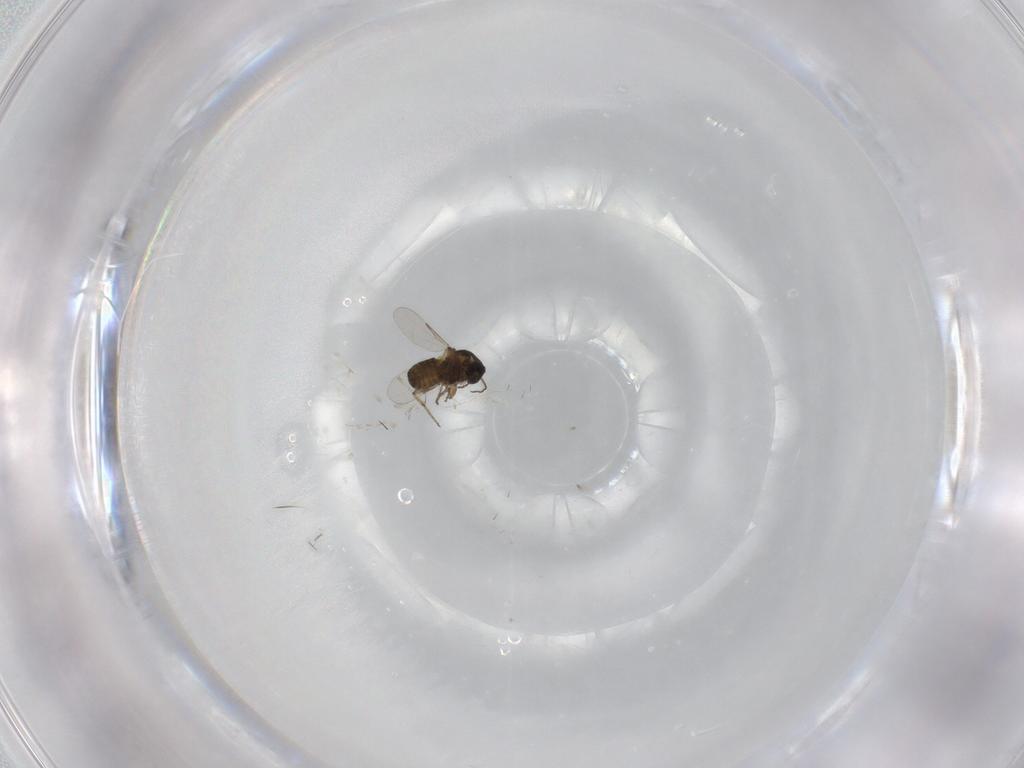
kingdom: Animalia
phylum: Arthropoda
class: Insecta
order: Diptera
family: Ceratopogonidae
